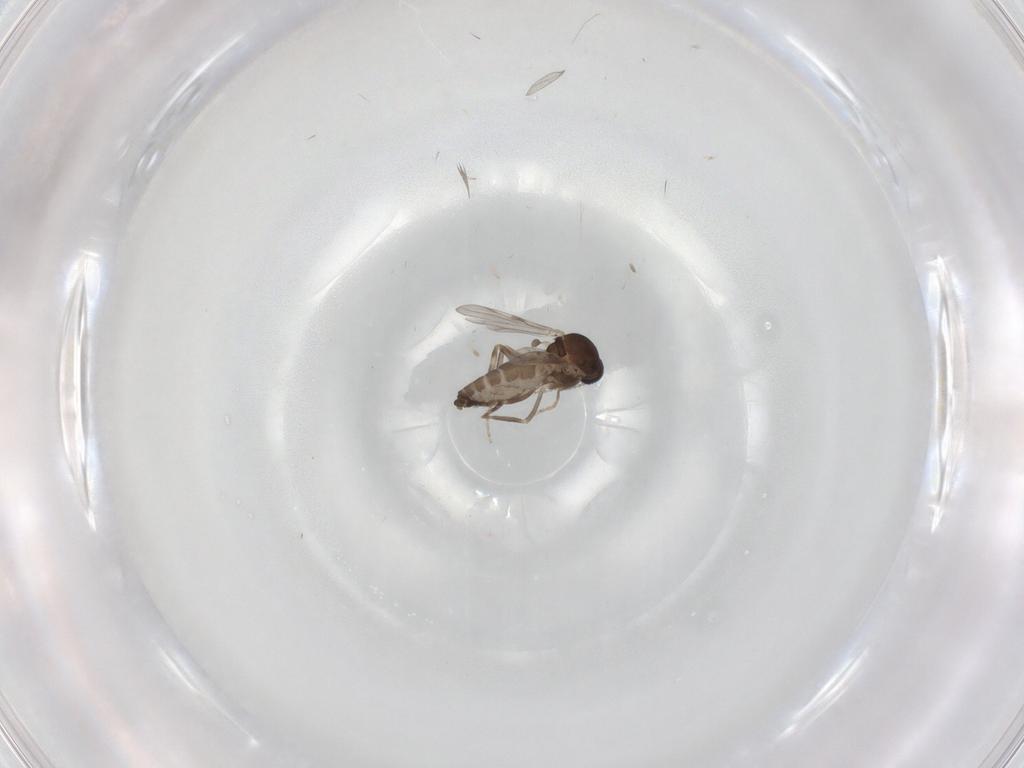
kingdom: Animalia
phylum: Arthropoda
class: Insecta
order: Diptera
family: Ceratopogonidae
